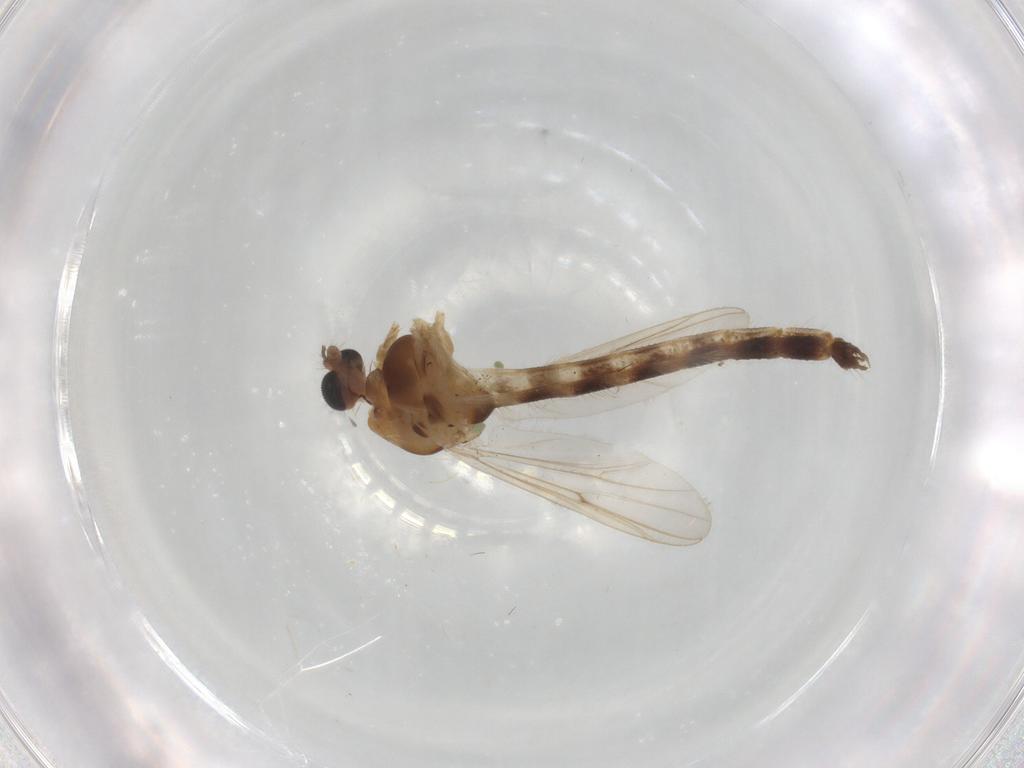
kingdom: Animalia
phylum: Arthropoda
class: Insecta
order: Diptera
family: Chironomidae
